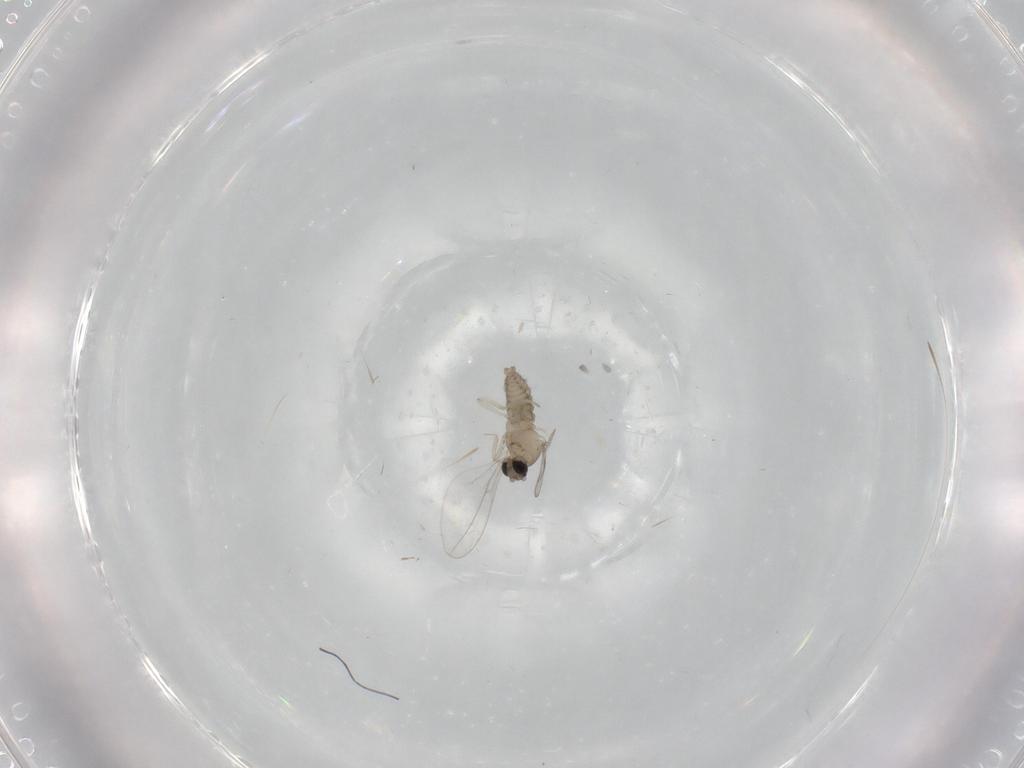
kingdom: Animalia
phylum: Arthropoda
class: Insecta
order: Diptera
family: Cecidomyiidae
